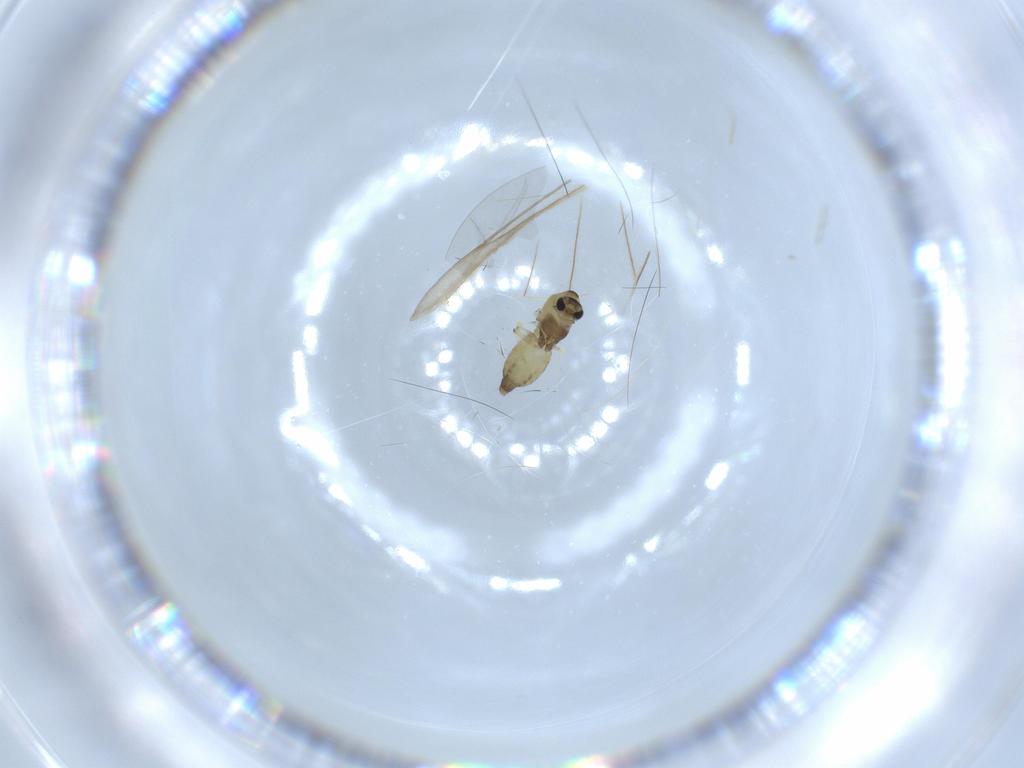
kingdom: Animalia
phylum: Arthropoda
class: Insecta
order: Diptera
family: Chironomidae
